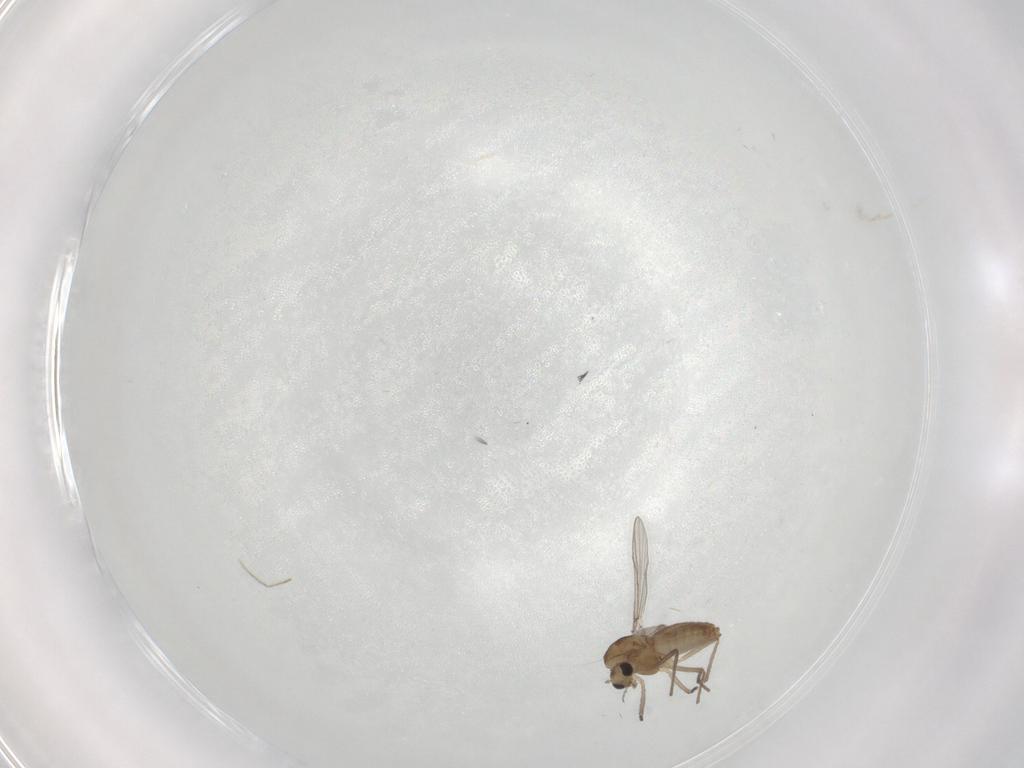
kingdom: Animalia
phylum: Arthropoda
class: Insecta
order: Diptera
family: Chironomidae
